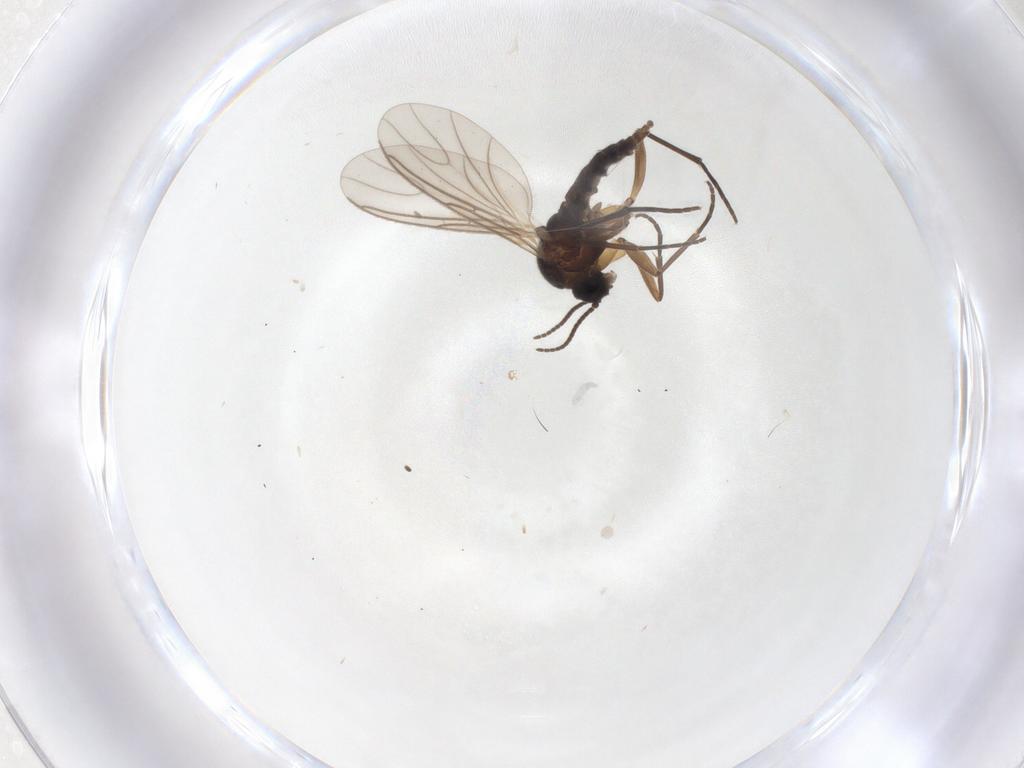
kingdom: Animalia
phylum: Arthropoda
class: Insecta
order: Diptera
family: Sciaridae
